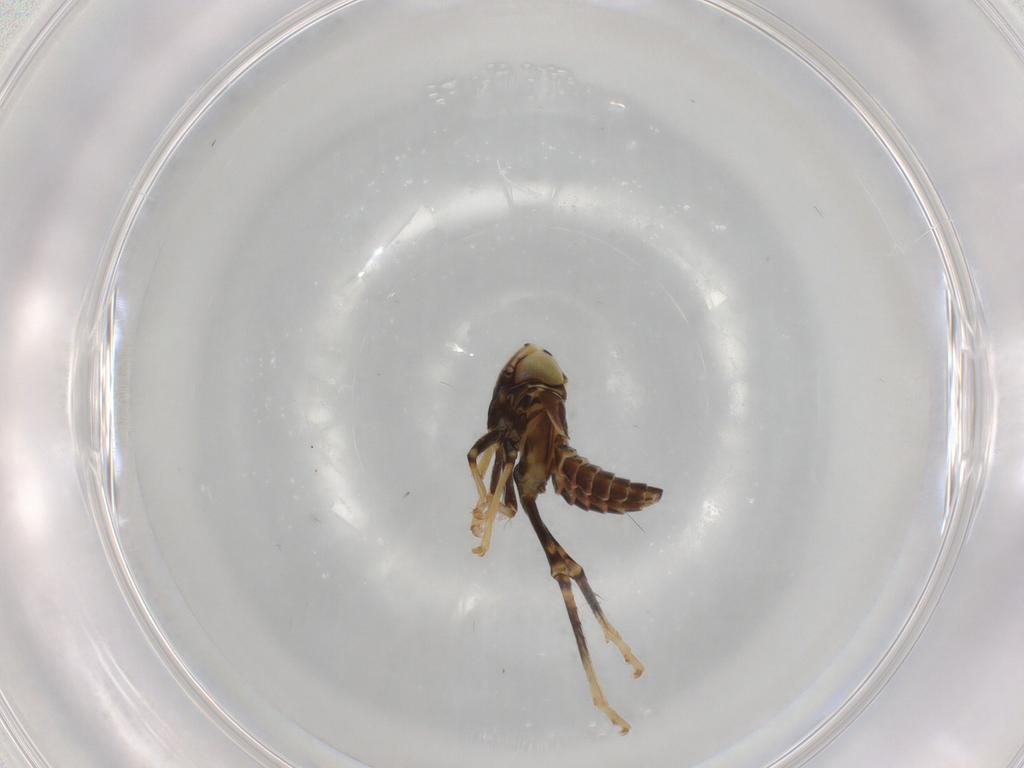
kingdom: Animalia
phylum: Arthropoda
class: Insecta
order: Hemiptera
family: Cicadellidae
